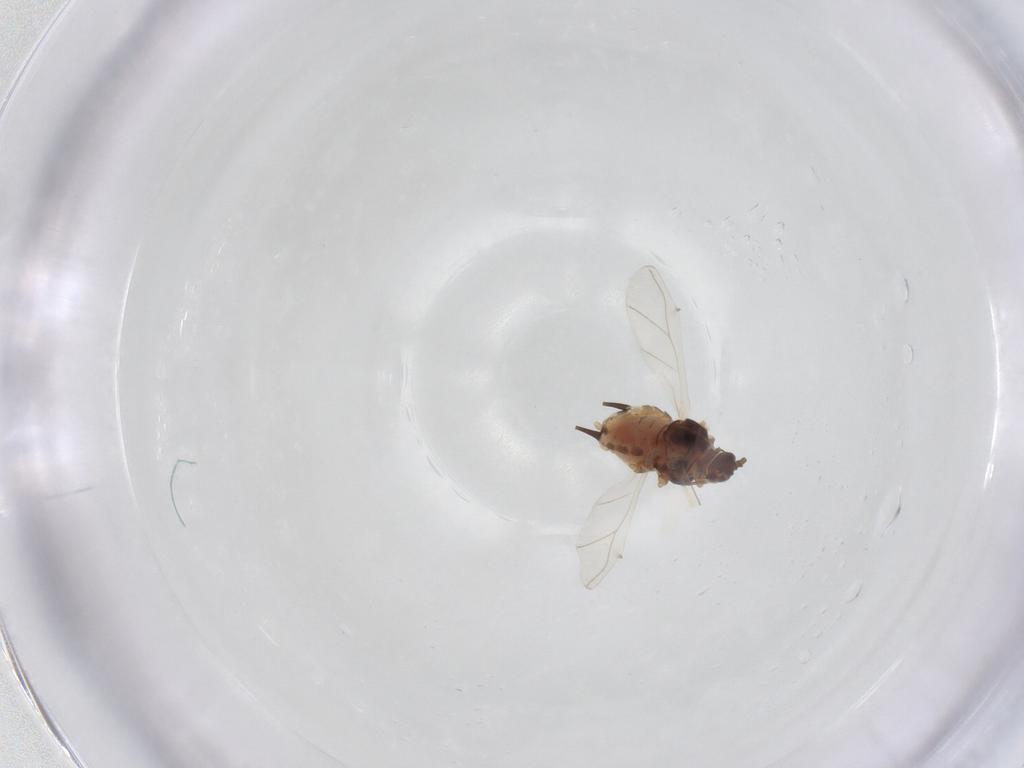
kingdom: Animalia
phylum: Arthropoda
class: Insecta
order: Hemiptera
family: Aphididae
